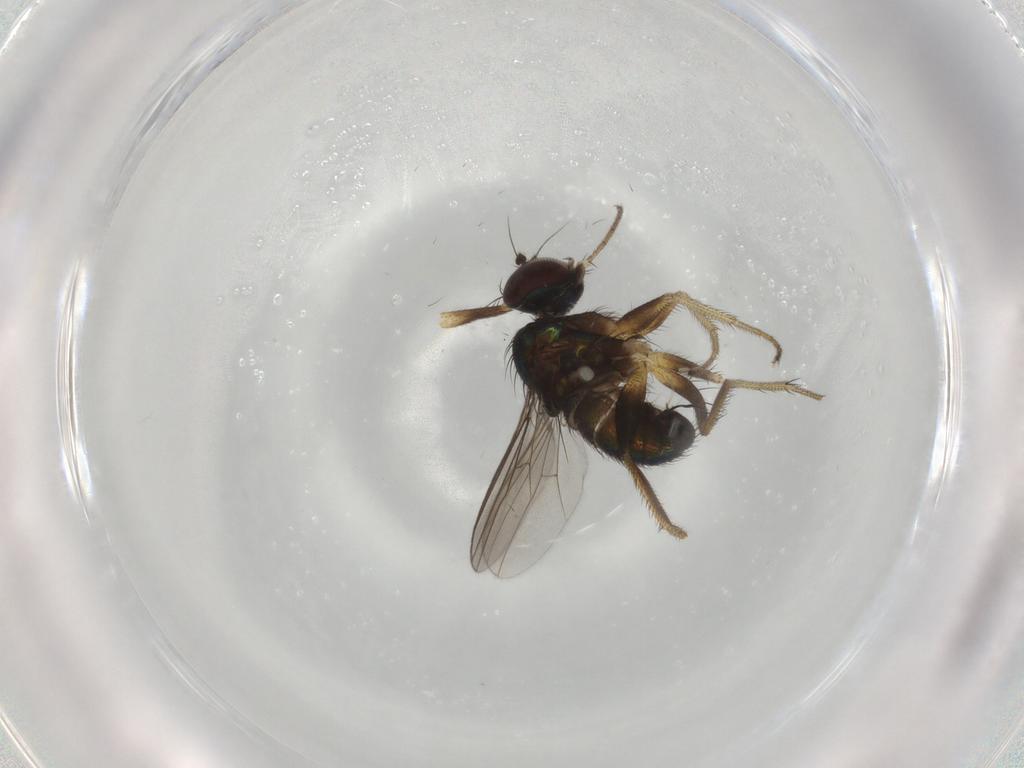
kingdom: Animalia
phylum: Arthropoda
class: Insecta
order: Diptera
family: Dolichopodidae
